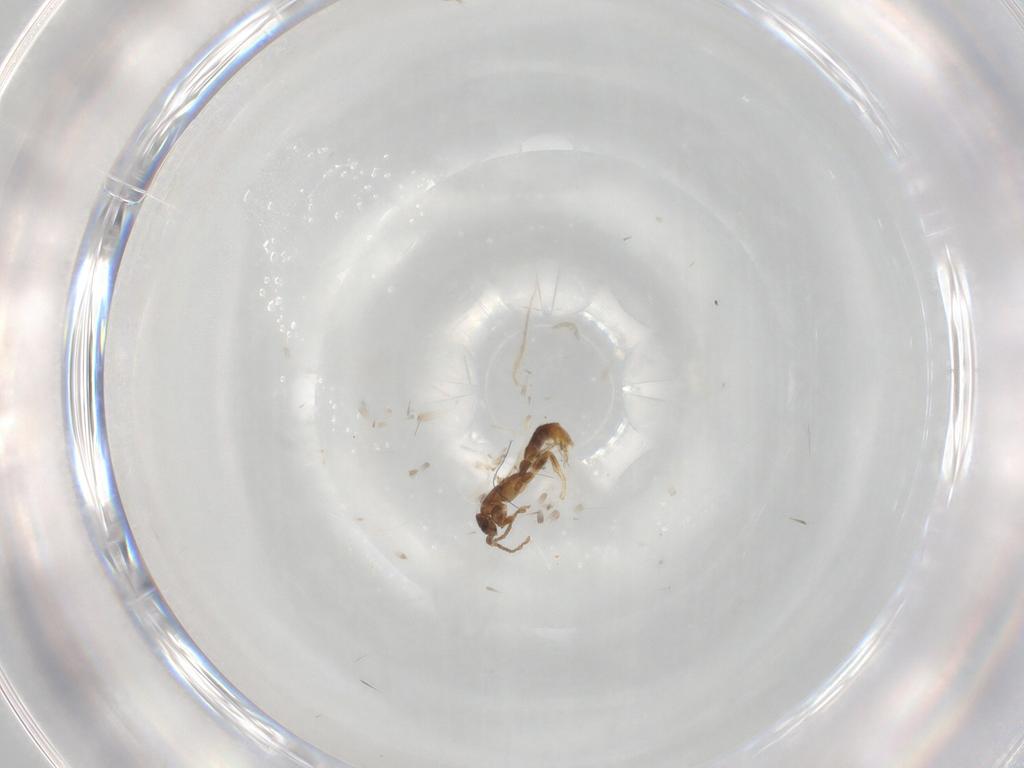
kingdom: Animalia
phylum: Arthropoda
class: Insecta
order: Hymenoptera
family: Formicidae
